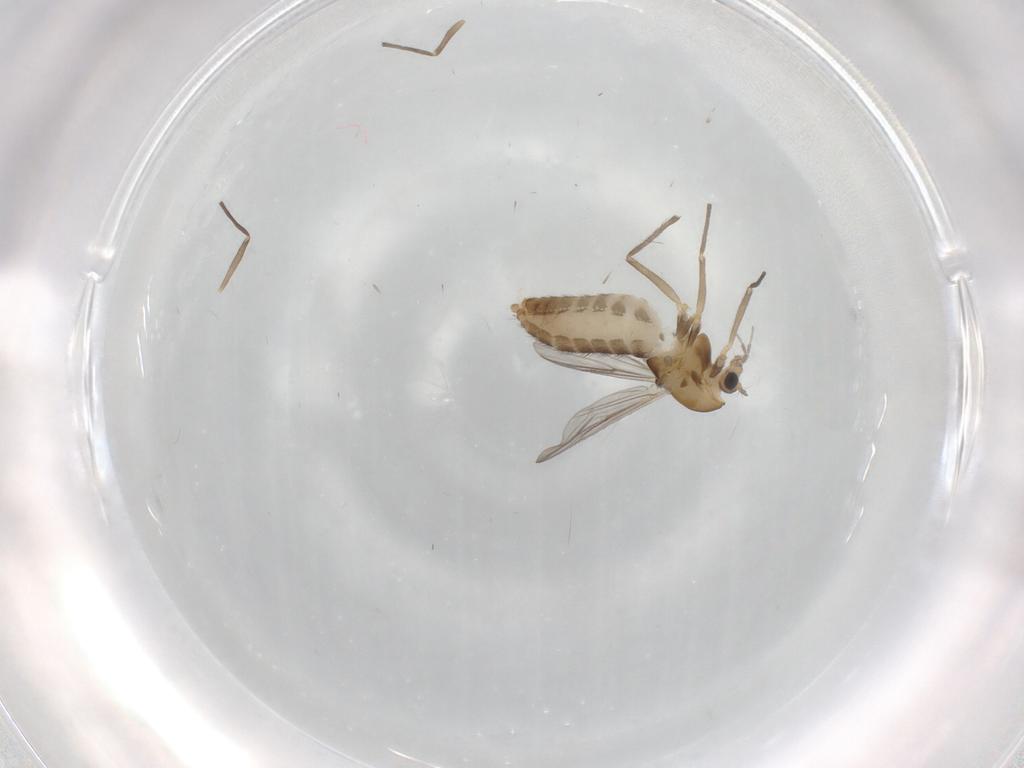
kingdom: Animalia
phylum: Arthropoda
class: Insecta
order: Diptera
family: Chironomidae
